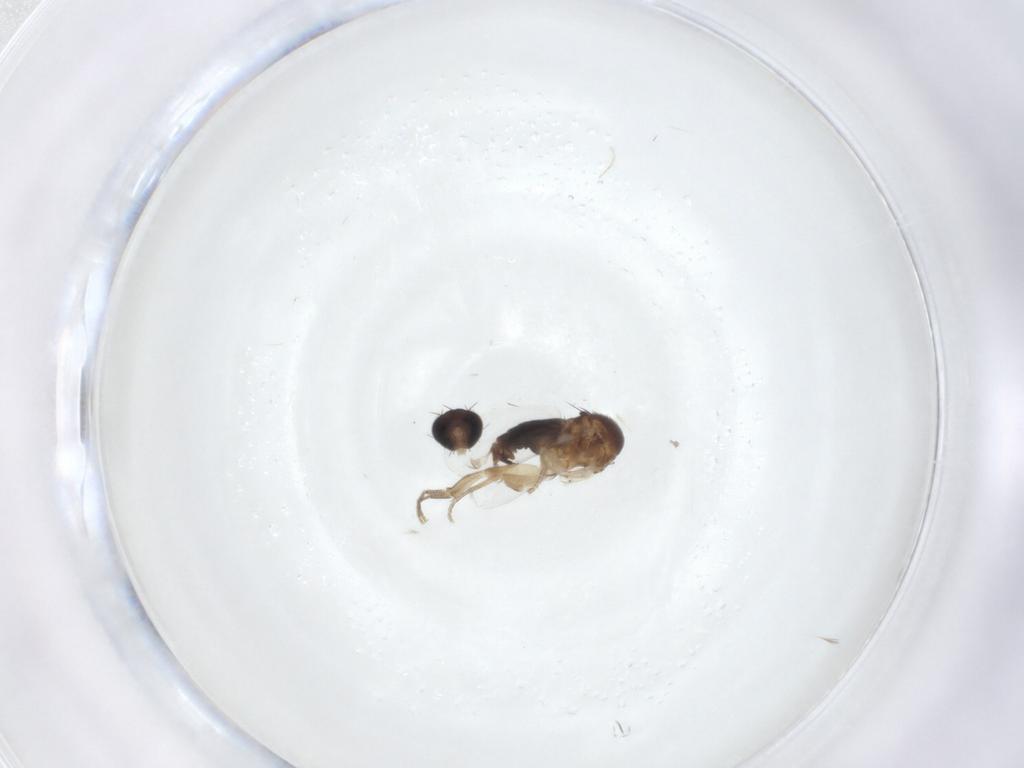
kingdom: Animalia
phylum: Arthropoda
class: Insecta
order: Diptera
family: Phoridae
